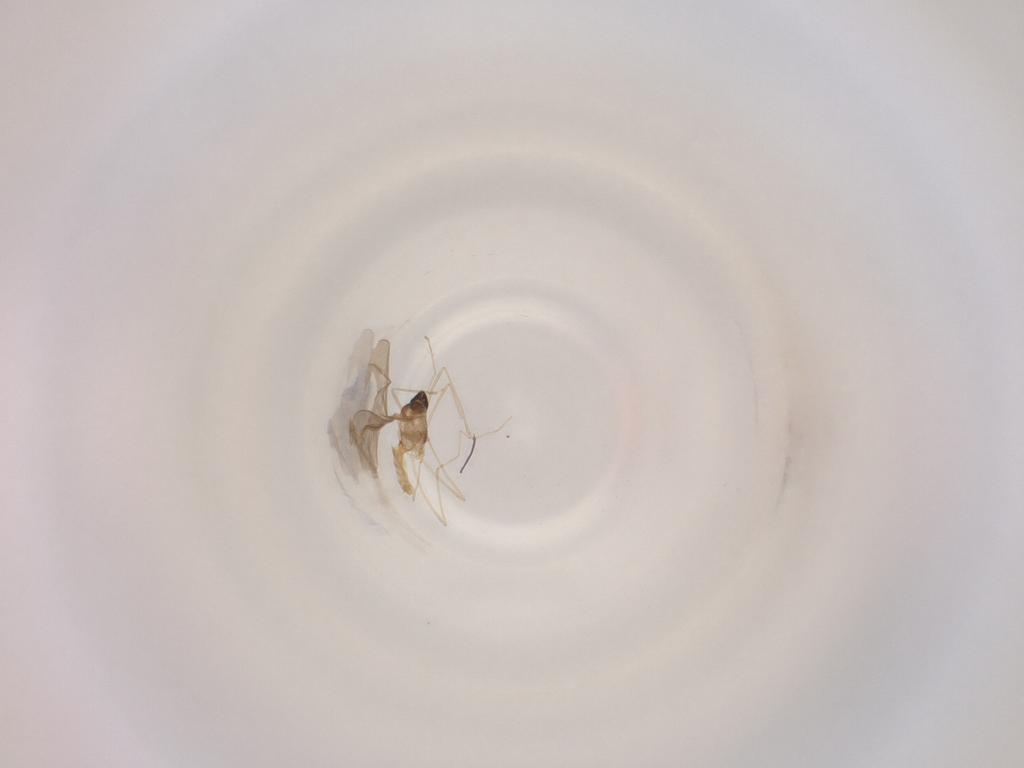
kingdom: Animalia
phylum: Arthropoda
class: Insecta
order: Diptera
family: Cecidomyiidae
